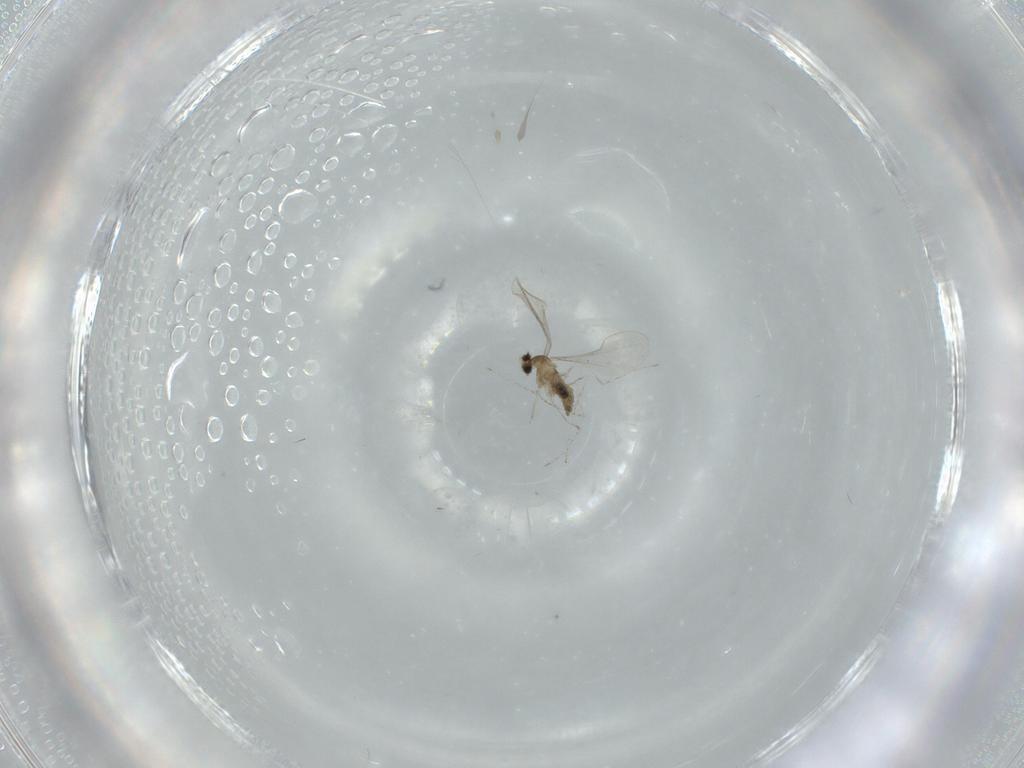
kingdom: Animalia
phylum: Arthropoda
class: Insecta
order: Diptera
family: Cecidomyiidae
